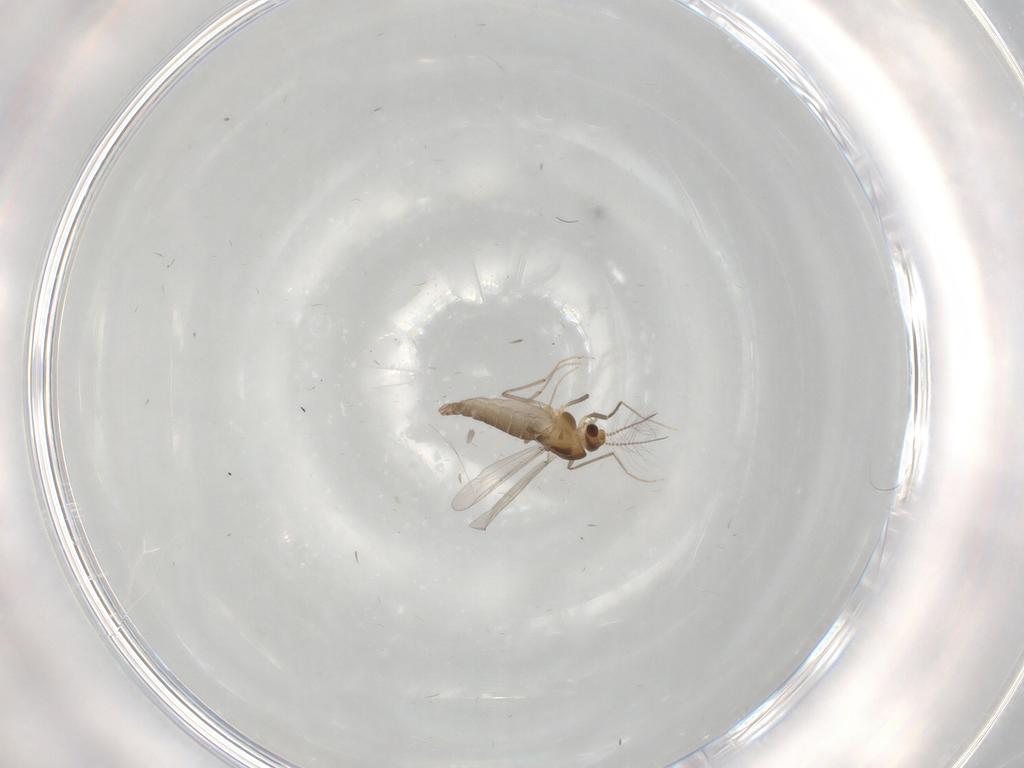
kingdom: Animalia
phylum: Arthropoda
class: Insecta
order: Diptera
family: Chironomidae
